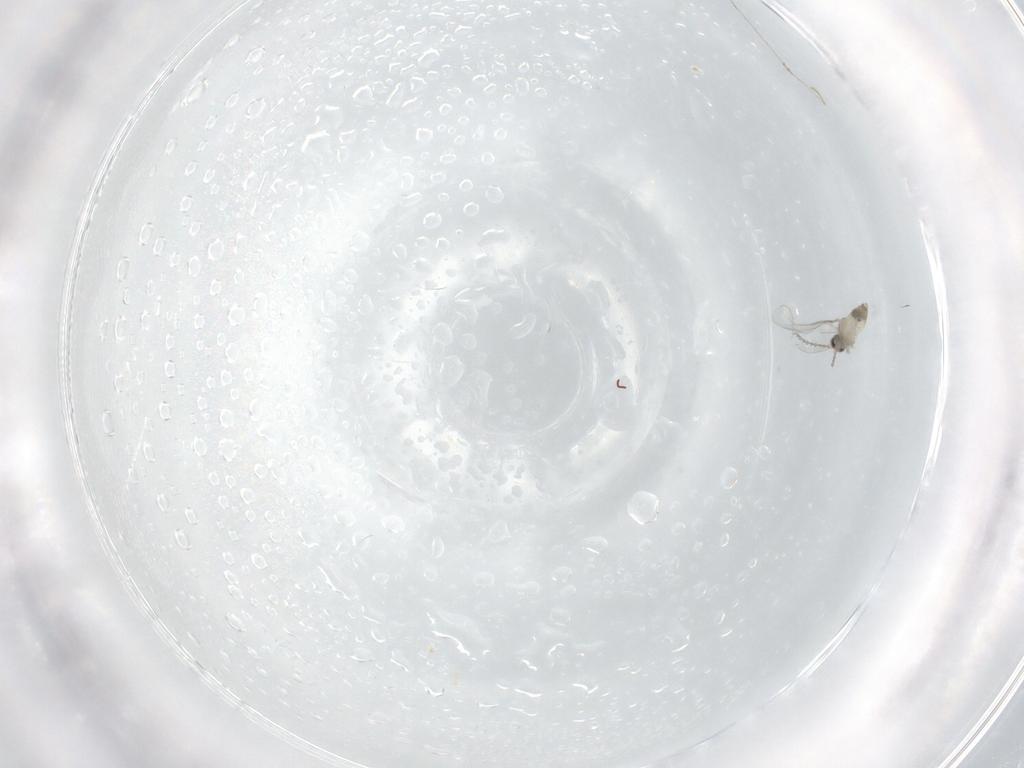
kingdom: Animalia
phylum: Arthropoda
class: Insecta
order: Diptera
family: Cecidomyiidae
